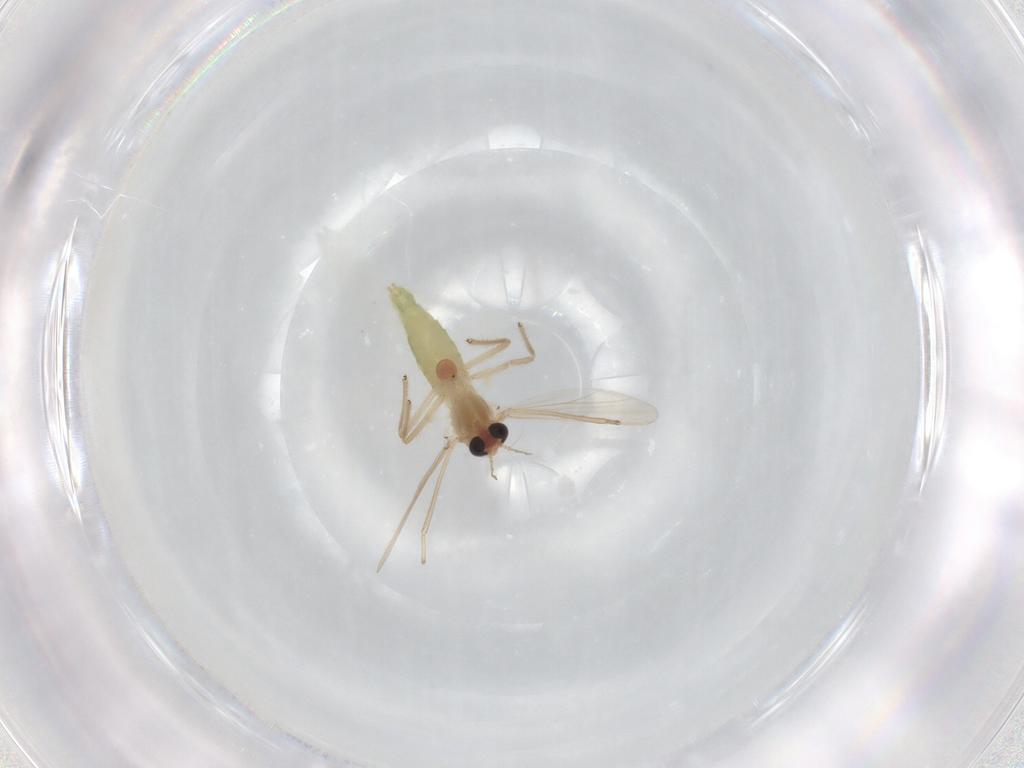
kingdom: Animalia
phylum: Arthropoda
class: Insecta
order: Diptera
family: Chironomidae
